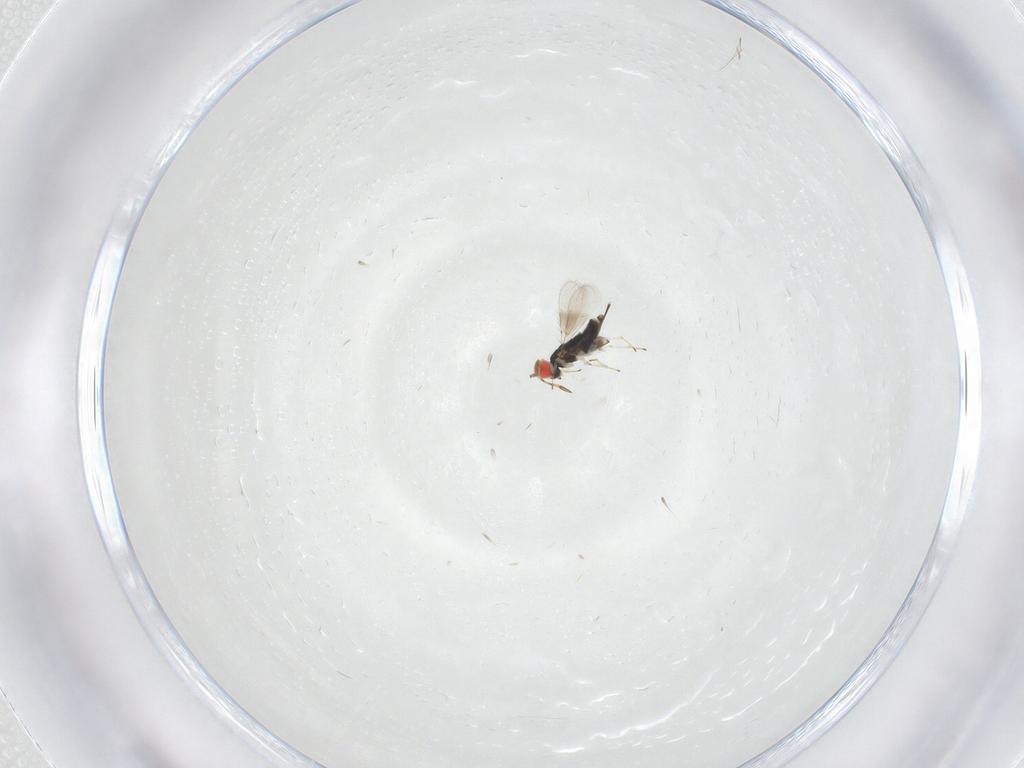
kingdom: Animalia
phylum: Arthropoda
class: Insecta
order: Hymenoptera
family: Azotidae
